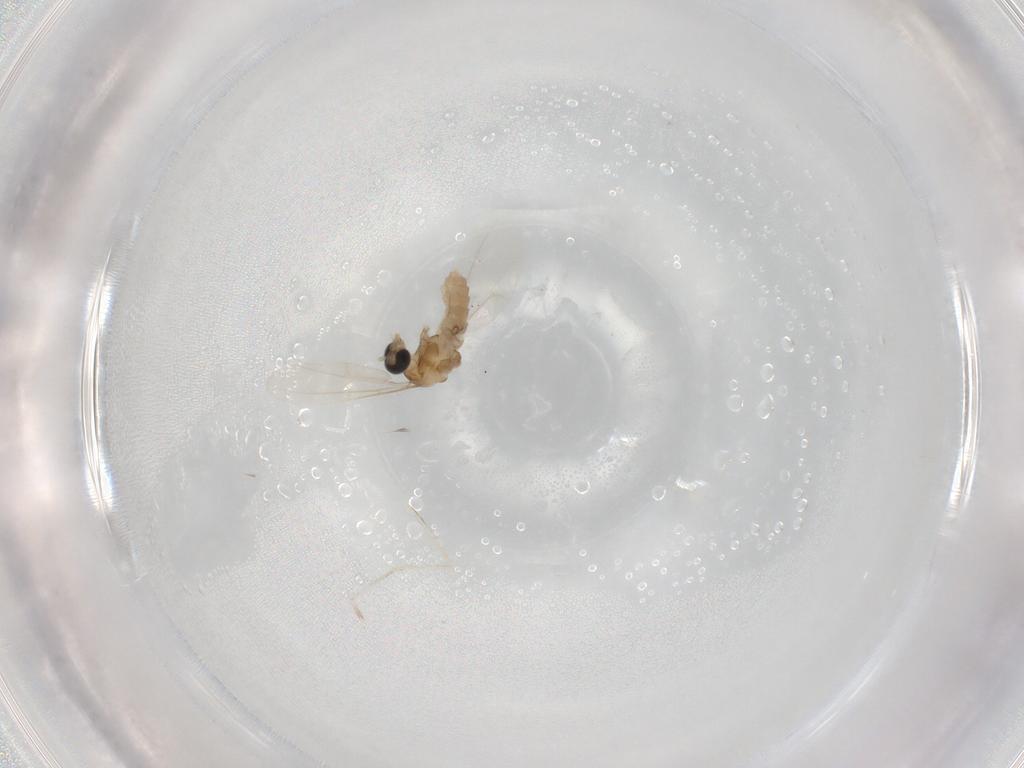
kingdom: Animalia
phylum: Arthropoda
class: Insecta
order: Diptera
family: Cecidomyiidae
